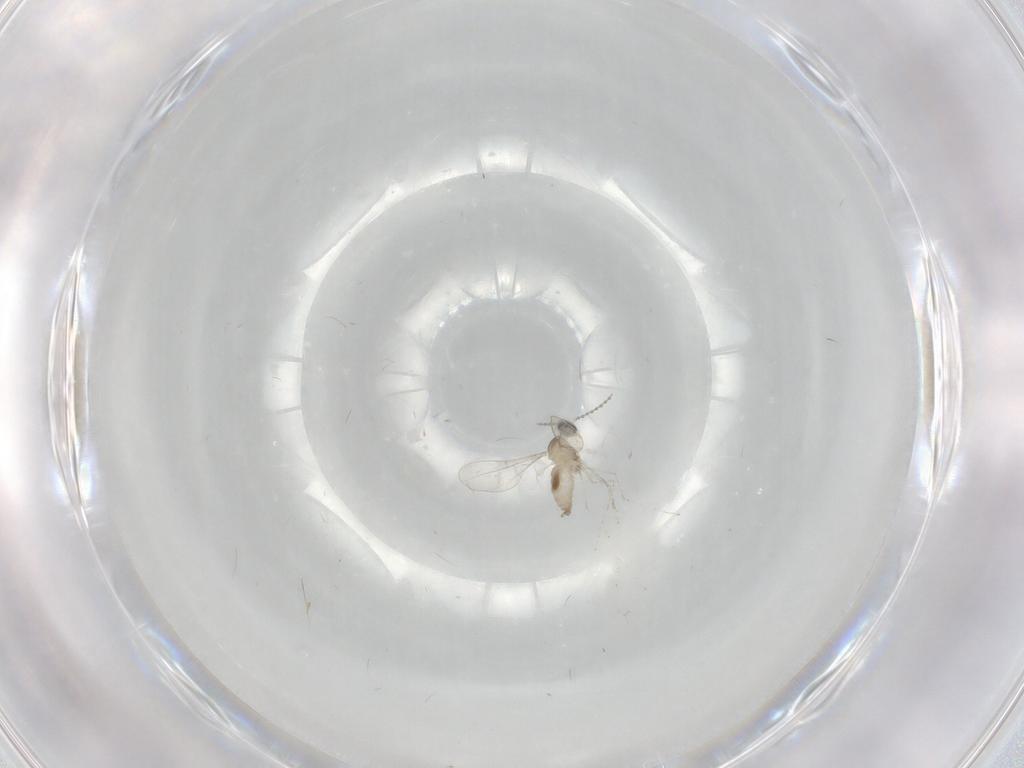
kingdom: Animalia
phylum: Arthropoda
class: Insecta
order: Diptera
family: Cecidomyiidae
